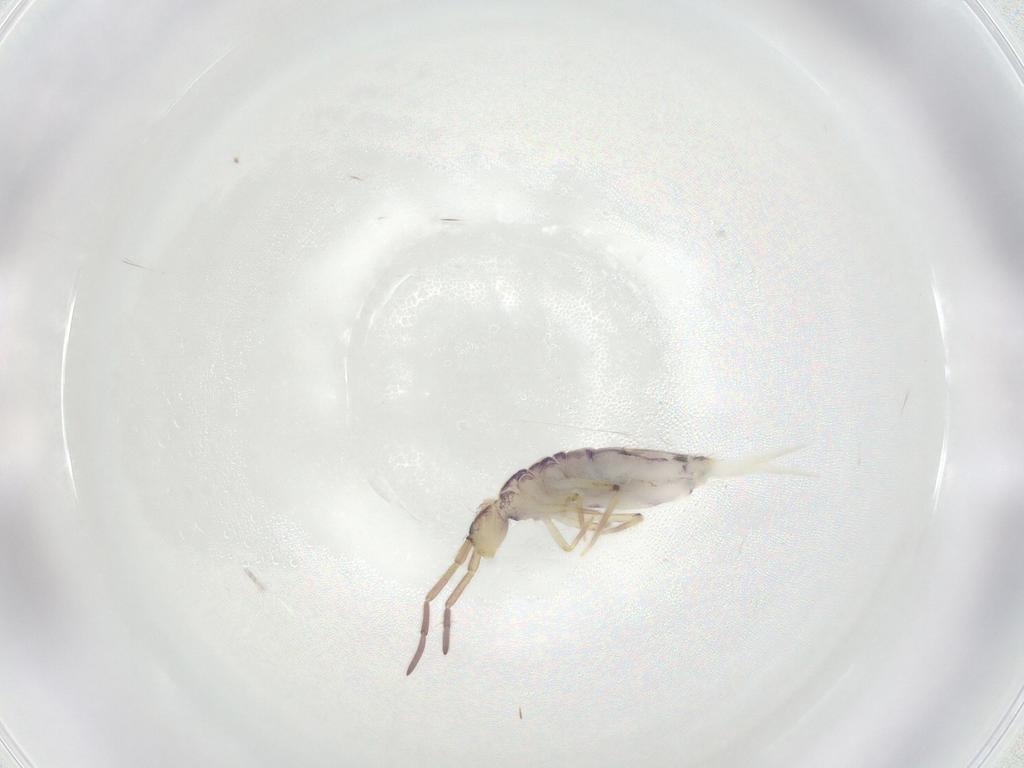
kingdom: Animalia
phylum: Arthropoda
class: Collembola
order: Entomobryomorpha
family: Entomobryidae
